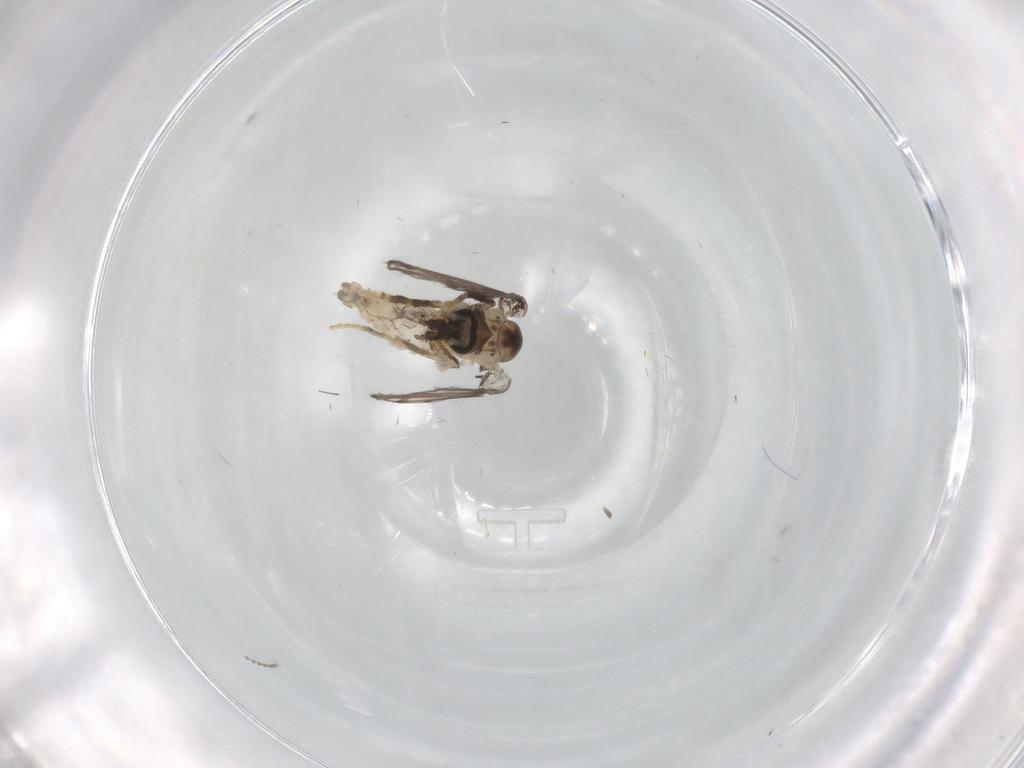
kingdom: Animalia
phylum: Arthropoda
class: Insecta
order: Diptera
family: Psychodidae
